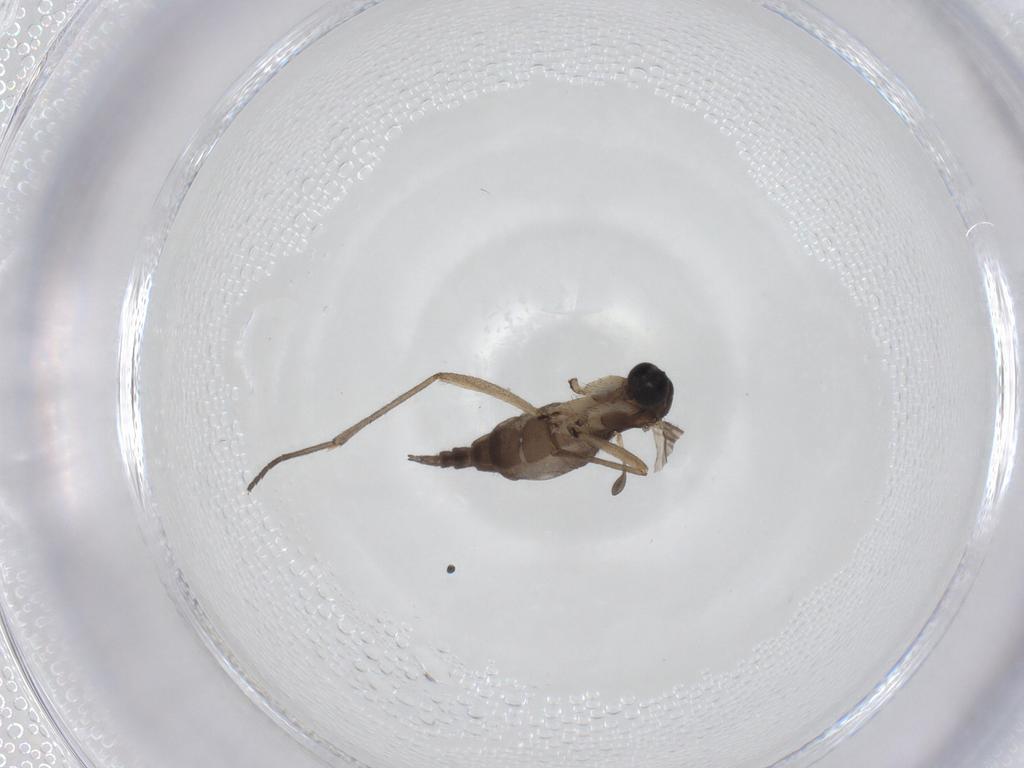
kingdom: Animalia
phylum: Arthropoda
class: Insecta
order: Diptera
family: Sciaridae
